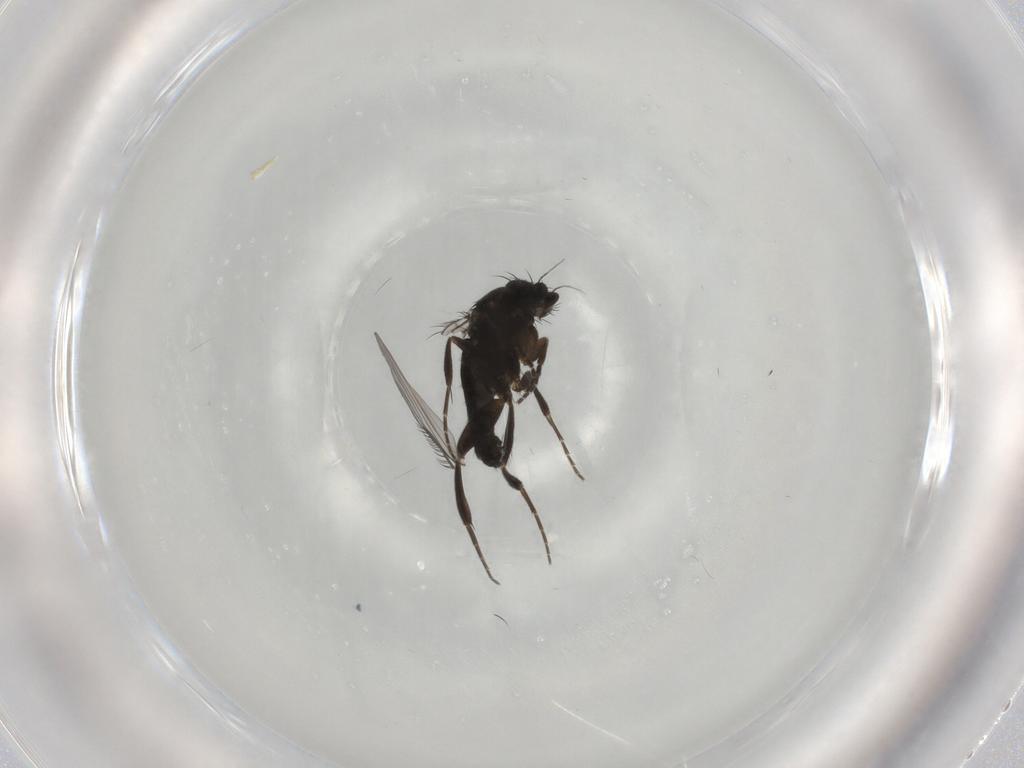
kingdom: Animalia
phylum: Arthropoda
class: Insecta
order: Diptera
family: Phoridae
